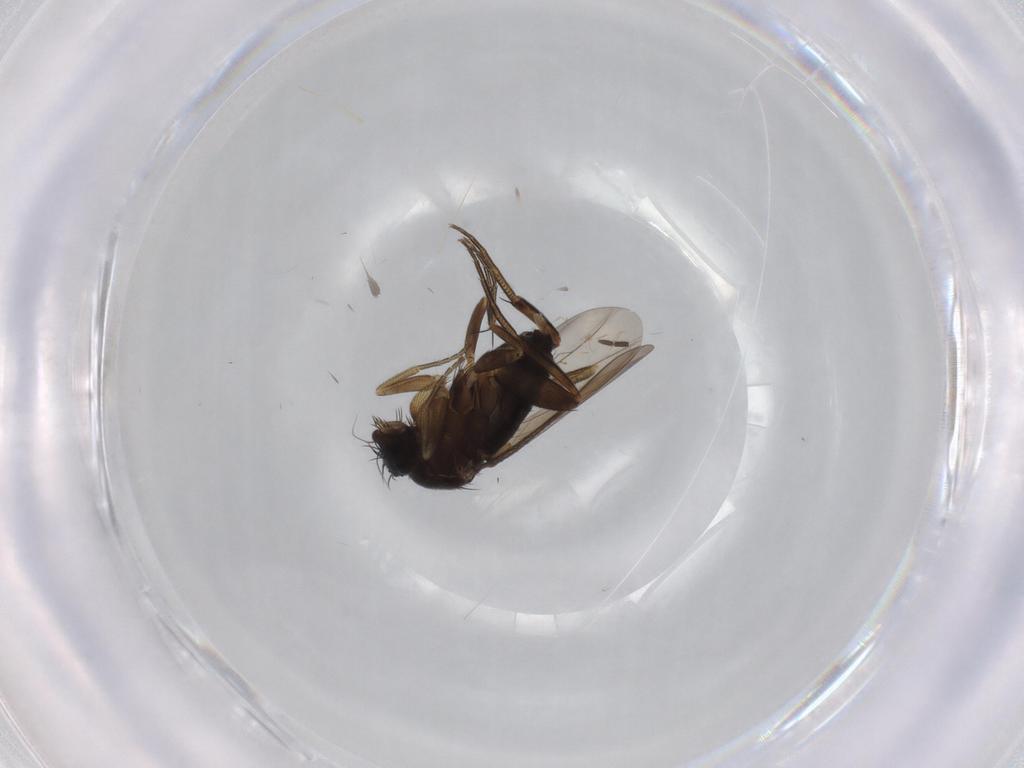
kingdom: Animalia
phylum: Arthropoda
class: Insecta
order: Diptera
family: Phoridae
